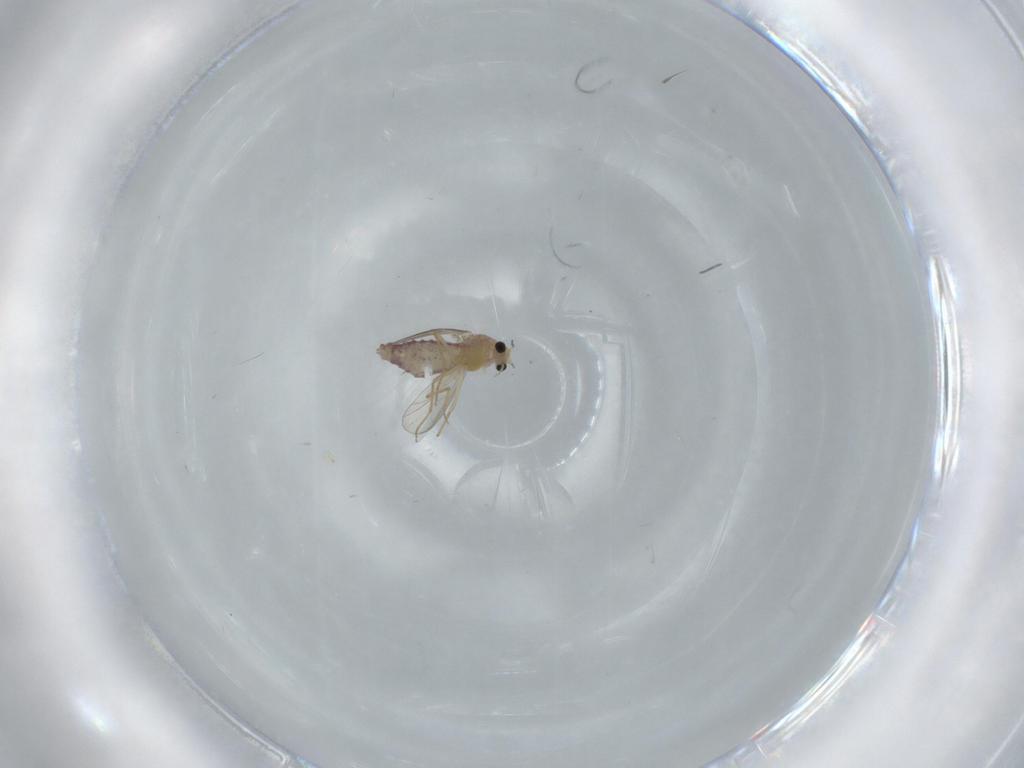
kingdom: Animalia
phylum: Arthropoda
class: Insecta
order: Diptera
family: Chironomidae
